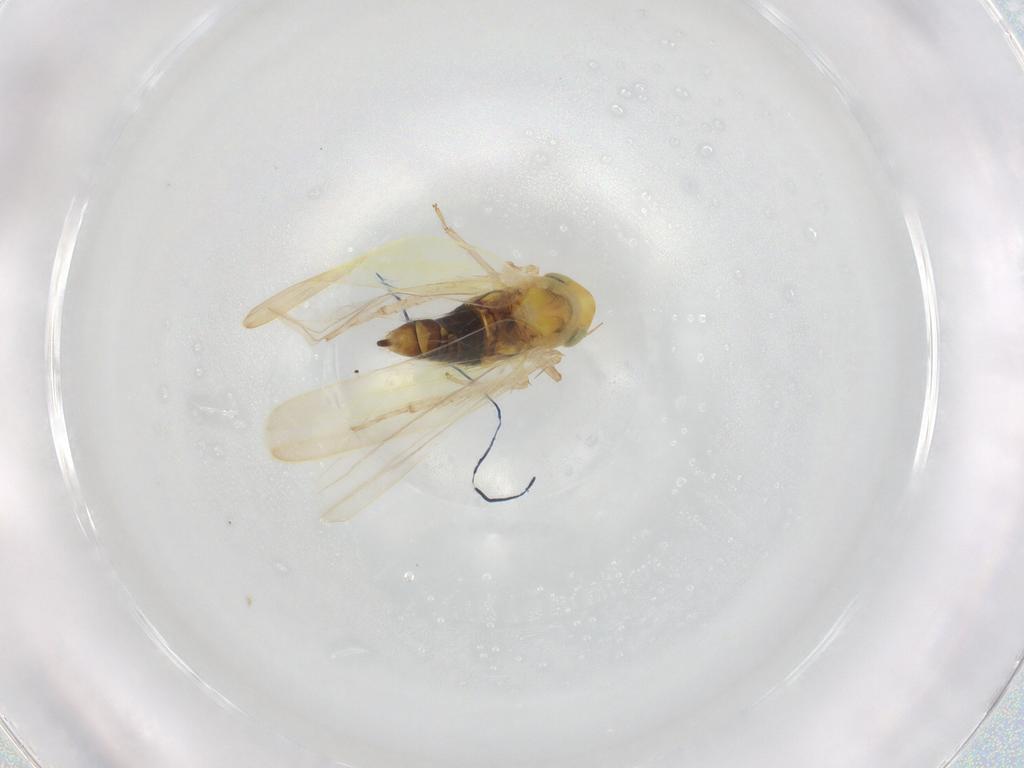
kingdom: Animalia
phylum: Arthropoda
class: Insecta
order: Hemiptera
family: Cicadellidae
